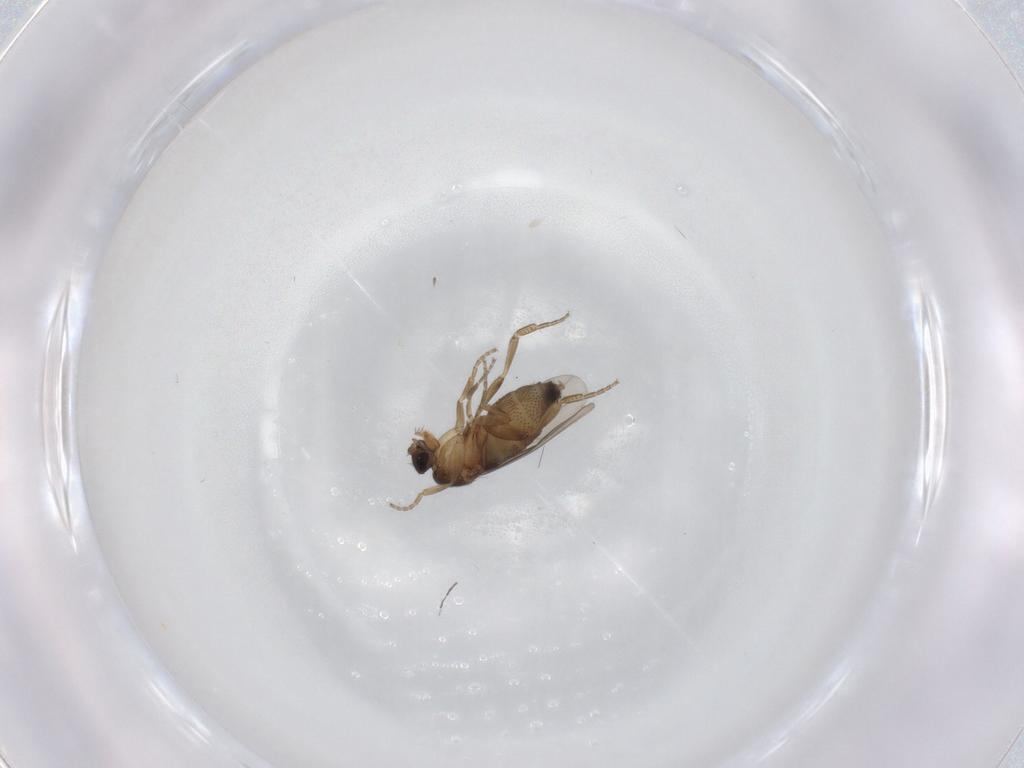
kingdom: Animalia
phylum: Arthropoda
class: Insecta
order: Diptera
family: Phoridae
